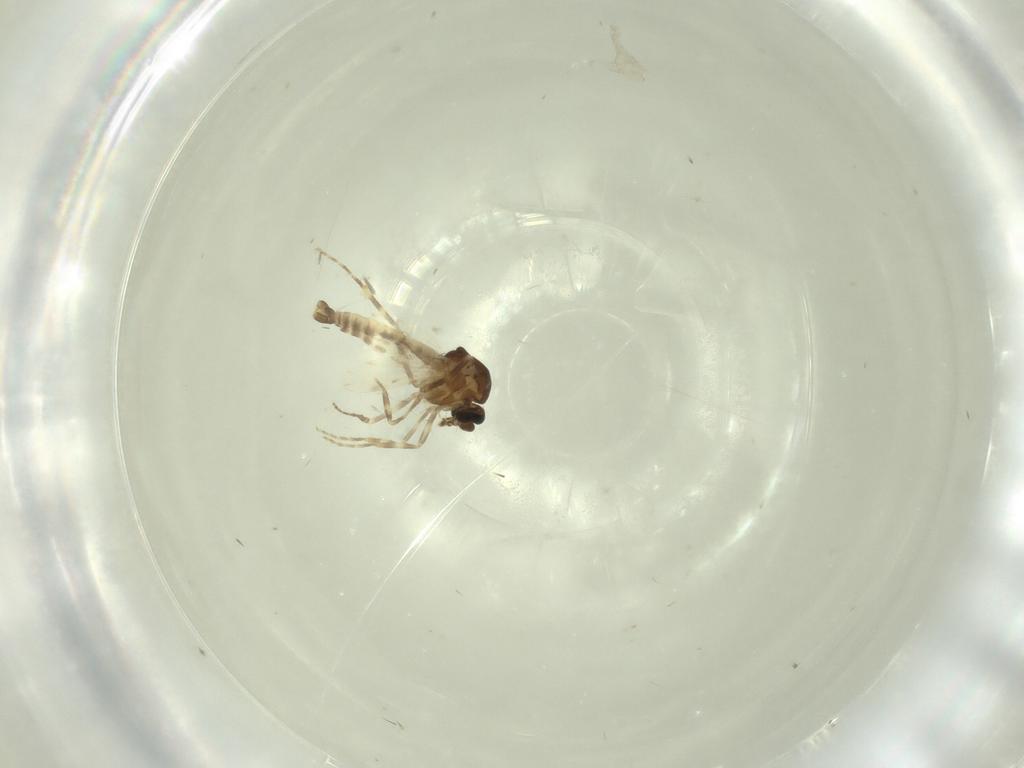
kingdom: Animalia
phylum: Arthropoda
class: Insecta
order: Diptera
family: Ceratopogonidae
